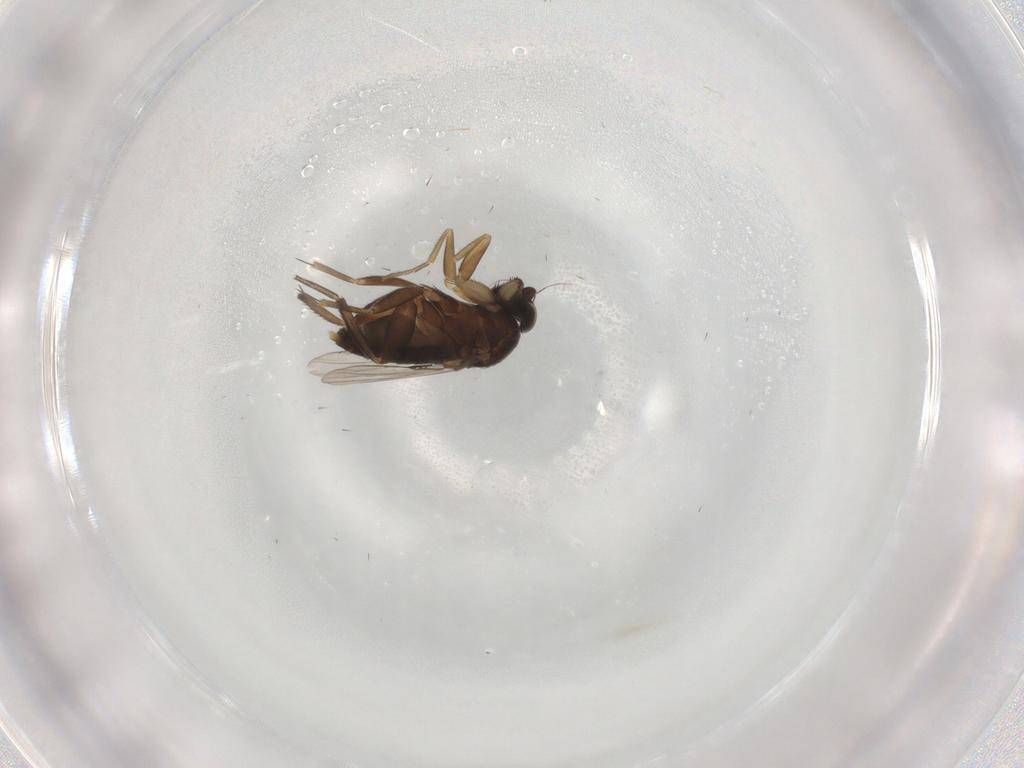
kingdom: Animalia
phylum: Arthropoda
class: Insecta
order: Diptera
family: Phoridae
